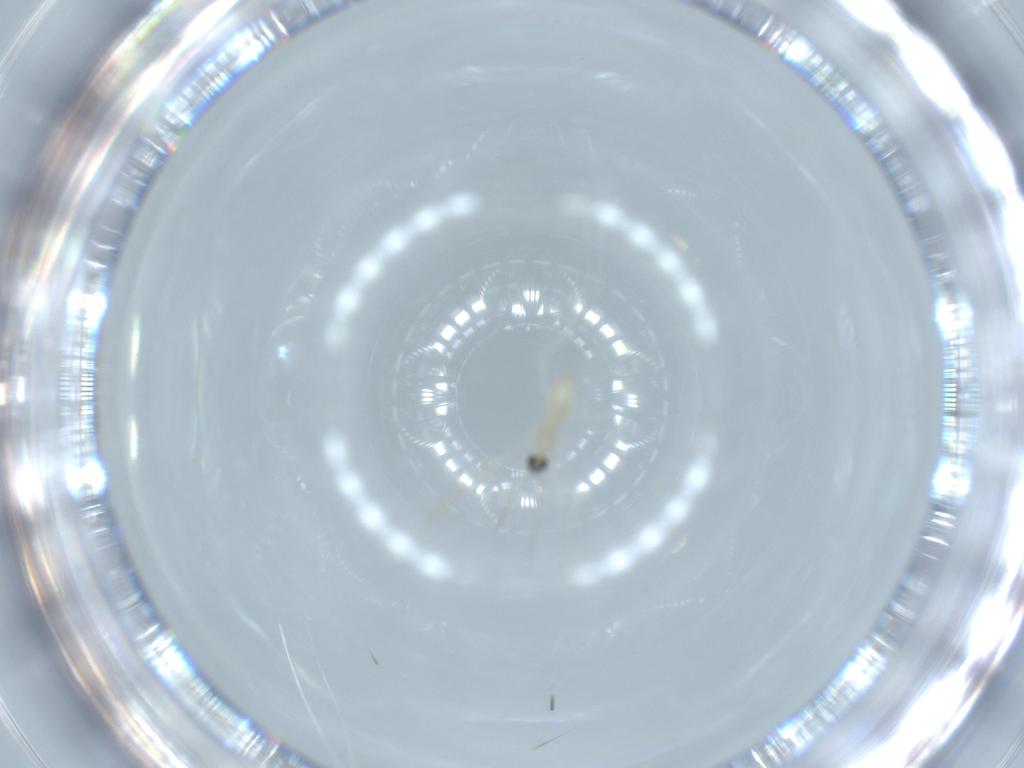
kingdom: Animalia
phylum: Arthropoda
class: Insecta
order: Diptera
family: Cecidomyiidae
